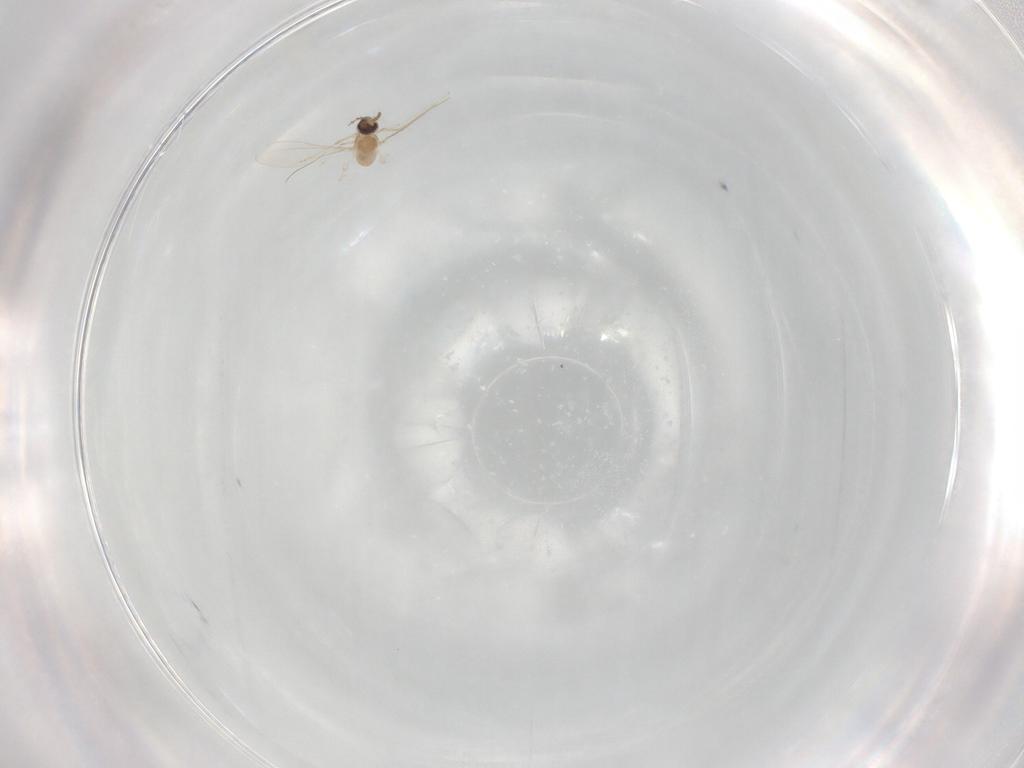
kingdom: Animalia
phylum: Arthropoda
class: Insecta
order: Diptera
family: Cecidomyiidae
